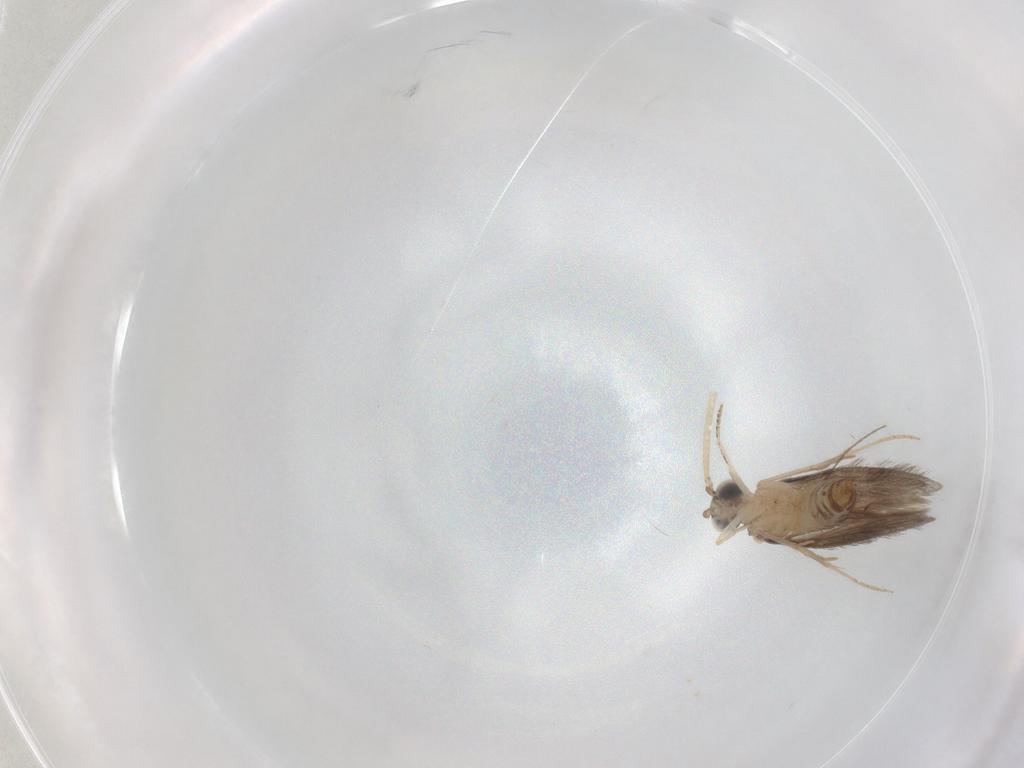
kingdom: Animalia
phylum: Arthropoda
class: Insecta
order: Trichoptera
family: Hydroptilidae
